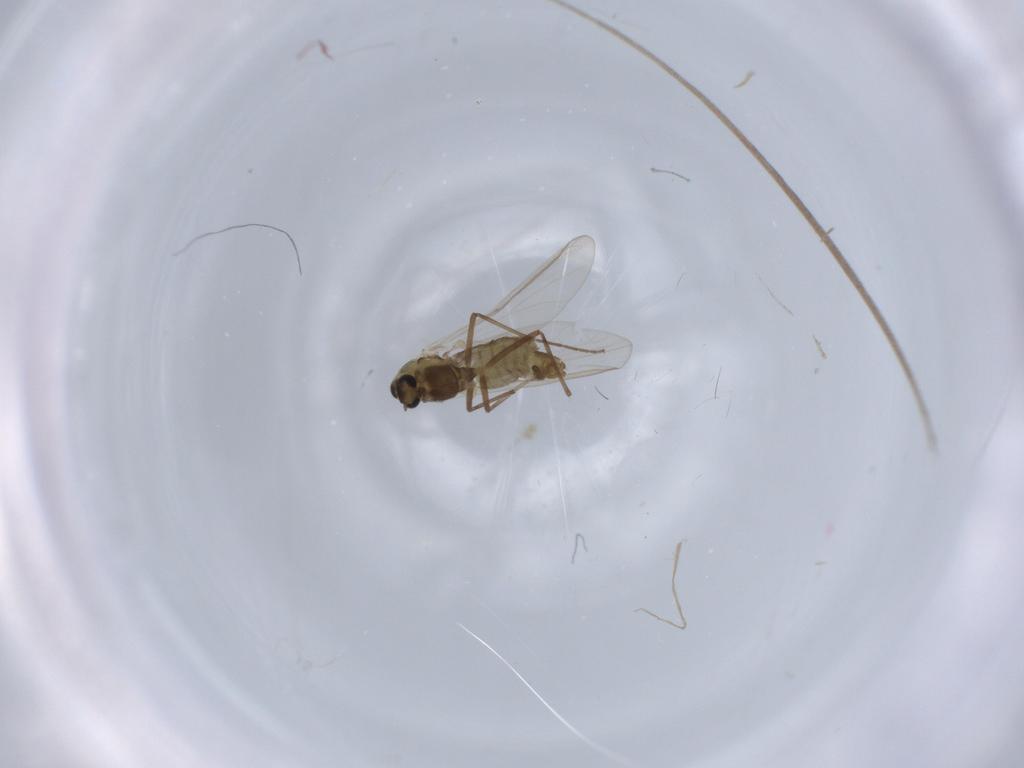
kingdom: Animalia
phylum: Arthropoda
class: Insecta
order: Diptera
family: Chironomidae
